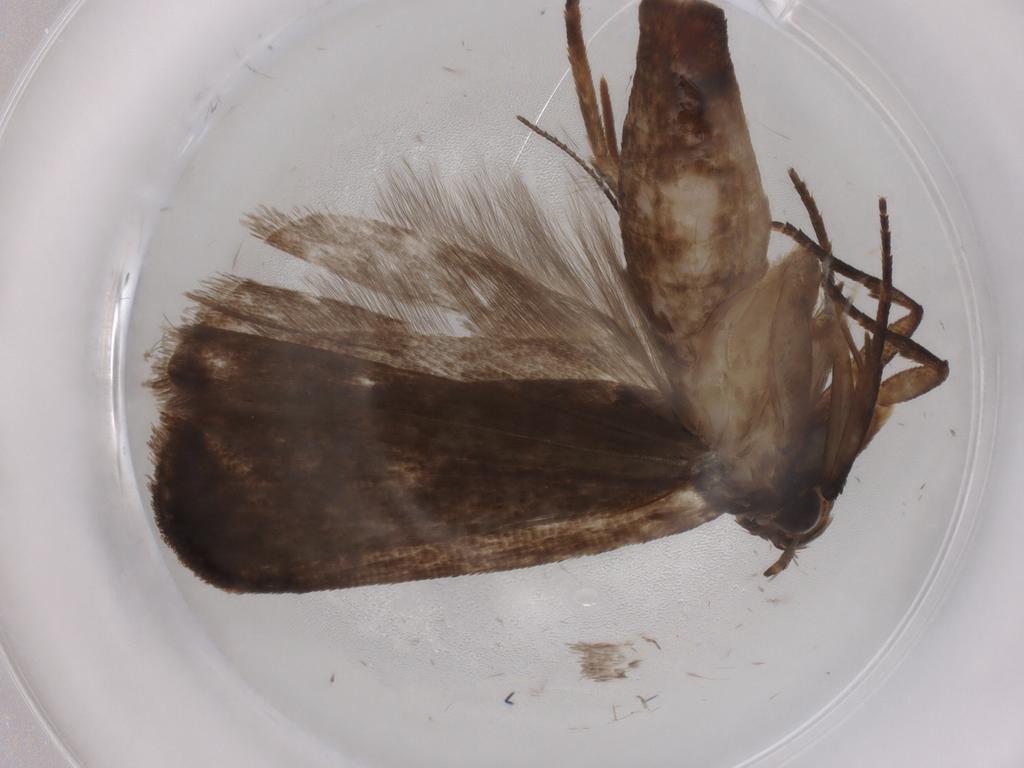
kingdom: Animalia
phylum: Arthropoda
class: Insecta
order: Lepidoptera
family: Gelechiidae
